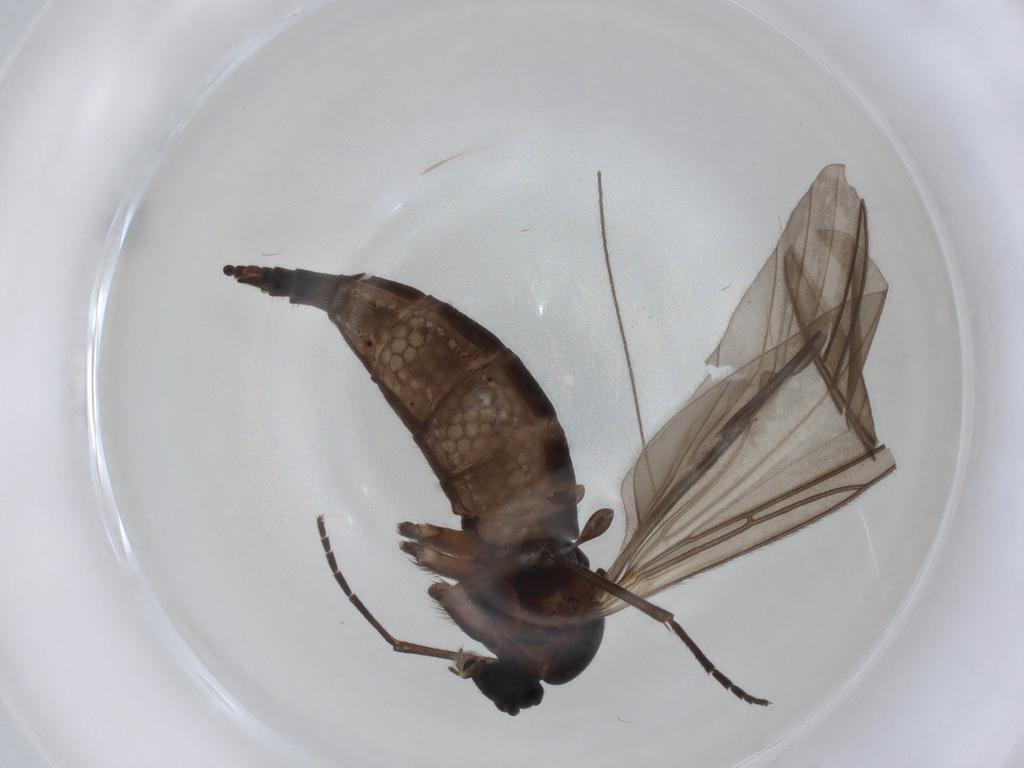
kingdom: Animalia
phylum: Arthropoda
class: Insecta
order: Diptera
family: Sciaridae
